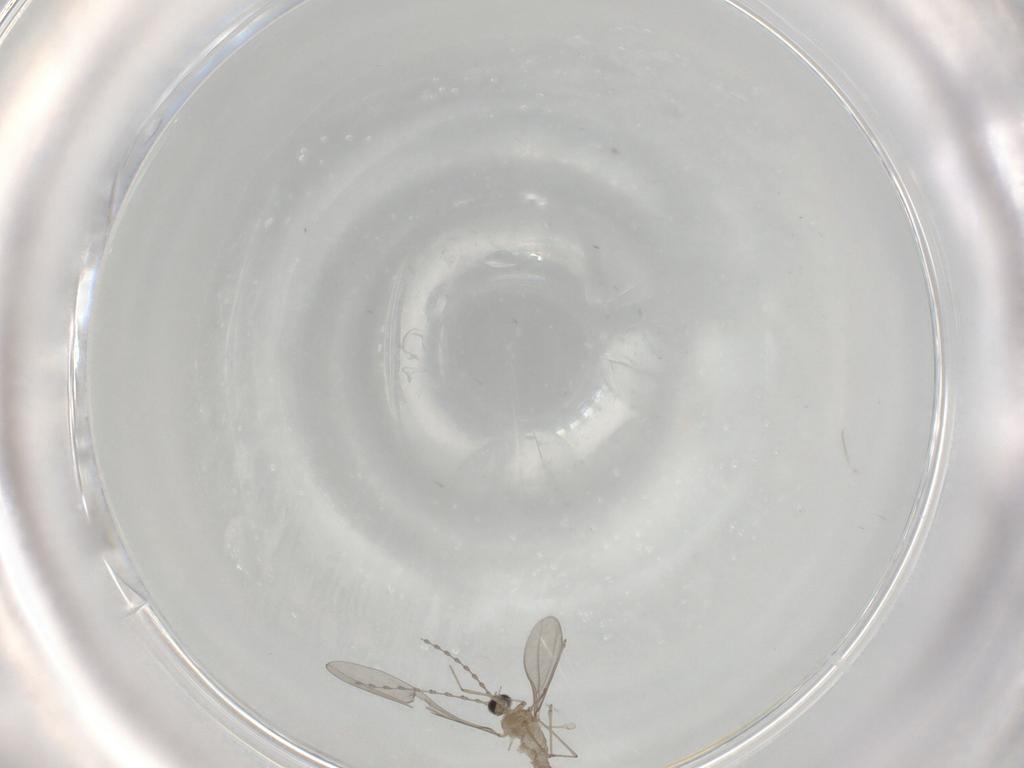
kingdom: Animalia
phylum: Arthropoda
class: Insecta
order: Diptera
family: Cecidomyiidae
